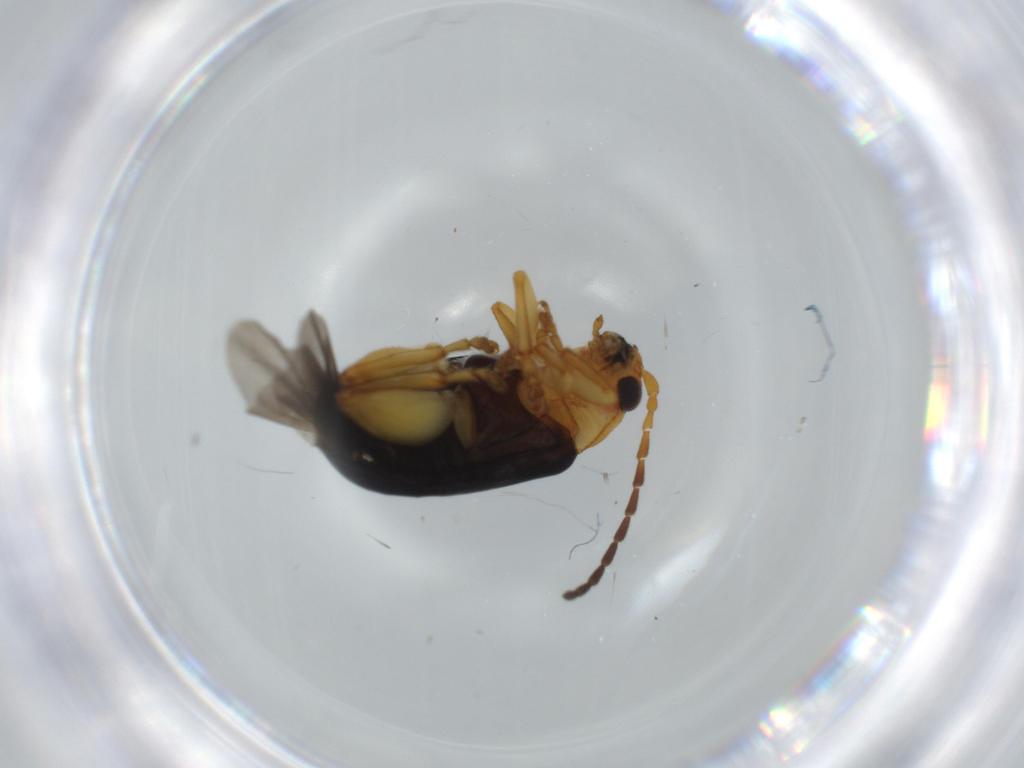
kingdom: Animalia
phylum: Arthropoda
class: Insecta
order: Coleoptera
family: Chrysomelidae
